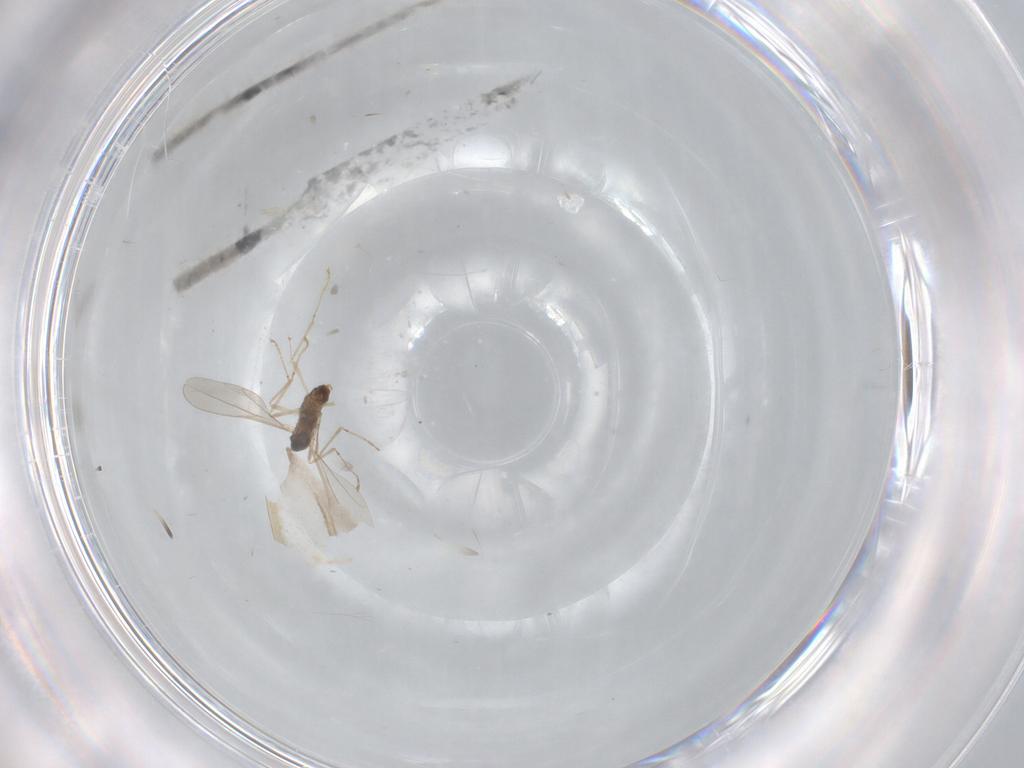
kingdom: Animalia
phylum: Arthropoda
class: Insecta
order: Diptera
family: Cecidomyiidae
